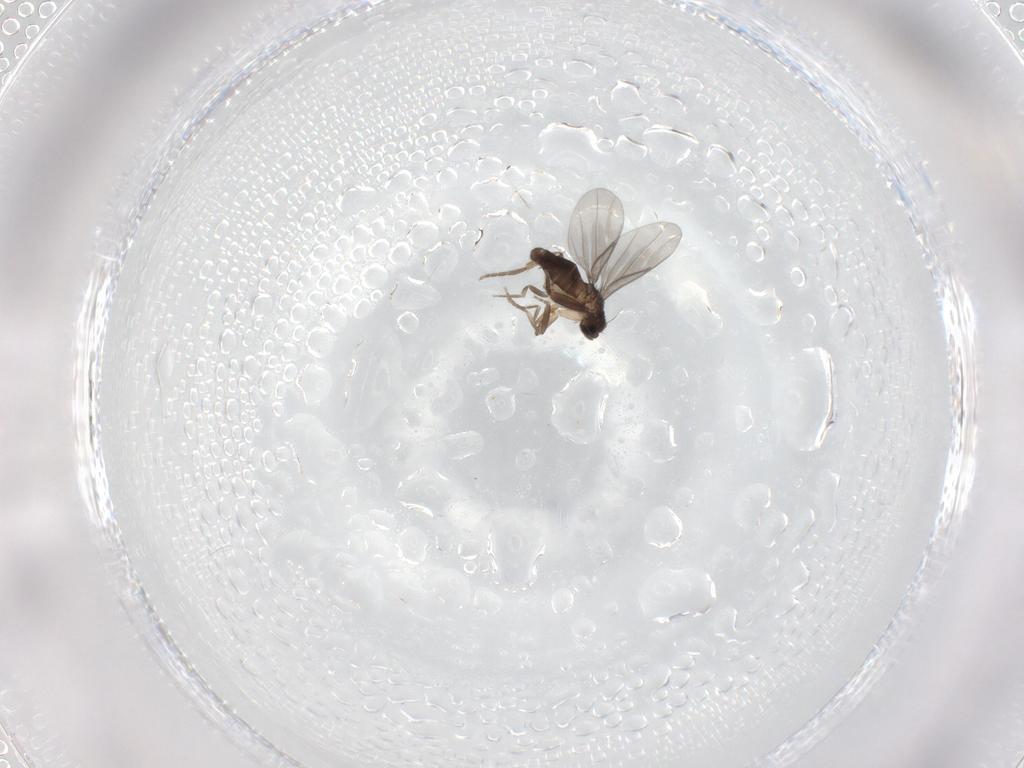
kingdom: Animalia
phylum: Arthropoda
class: Insecta
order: Diptera
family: Phoridae
